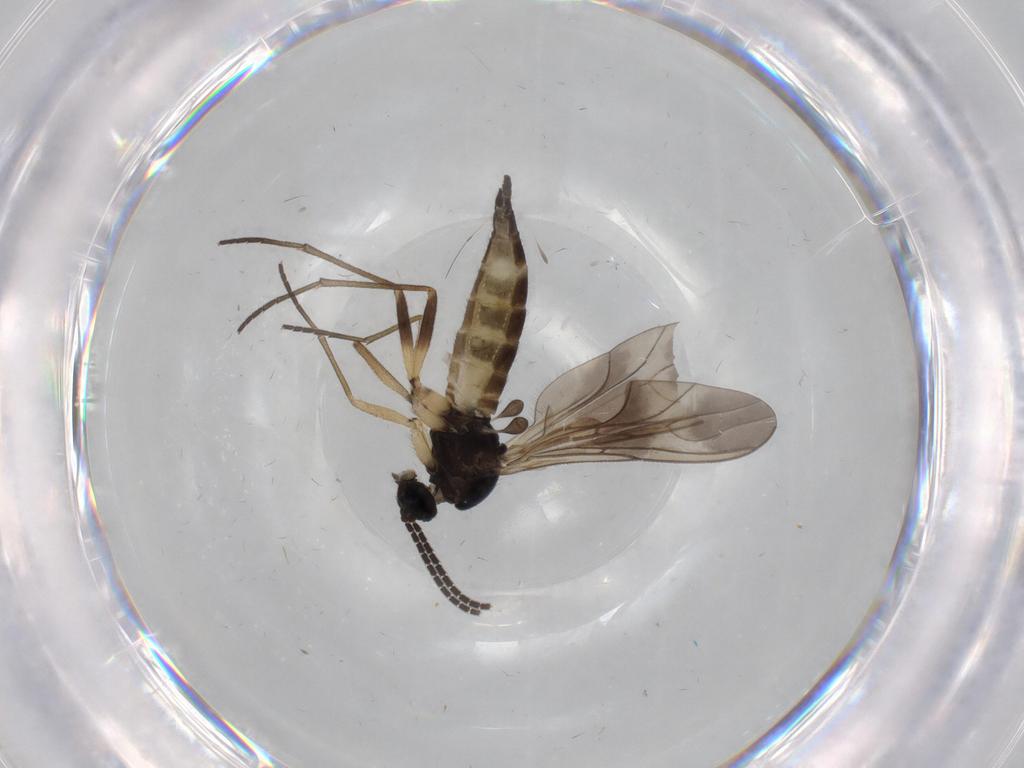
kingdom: Animalia
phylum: Arthropoda
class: Insecta
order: Diptera
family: Sciaridae
